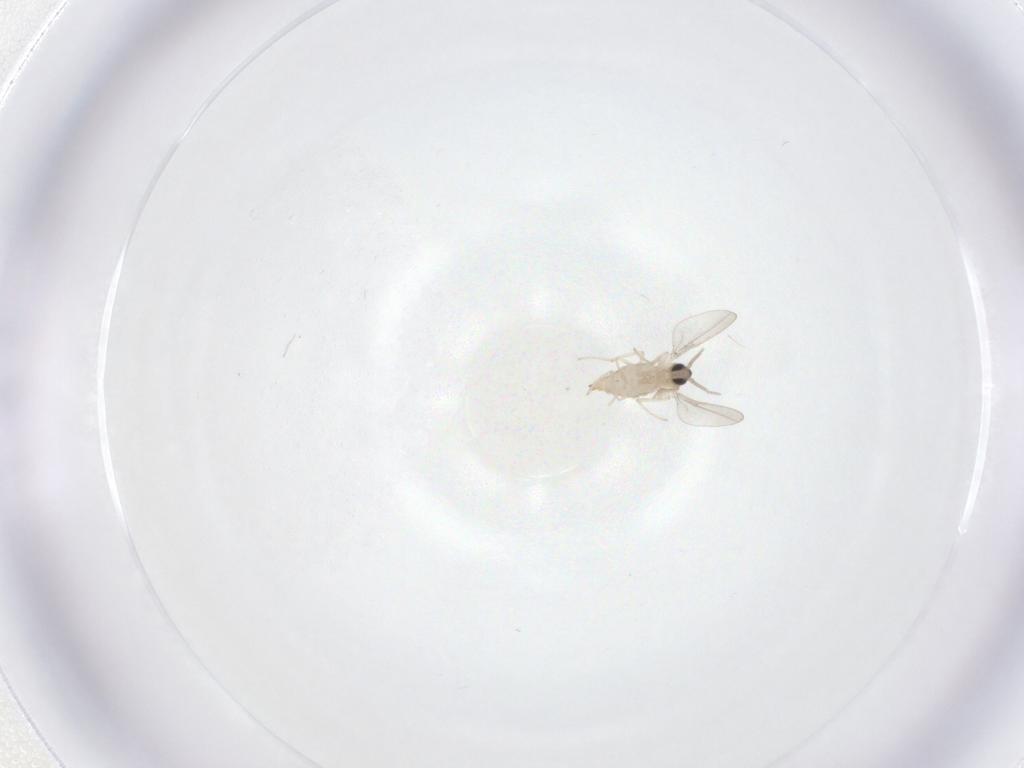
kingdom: Animalia
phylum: Arthropoda
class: Insecta
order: Diptera
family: Cecidomyiidae
